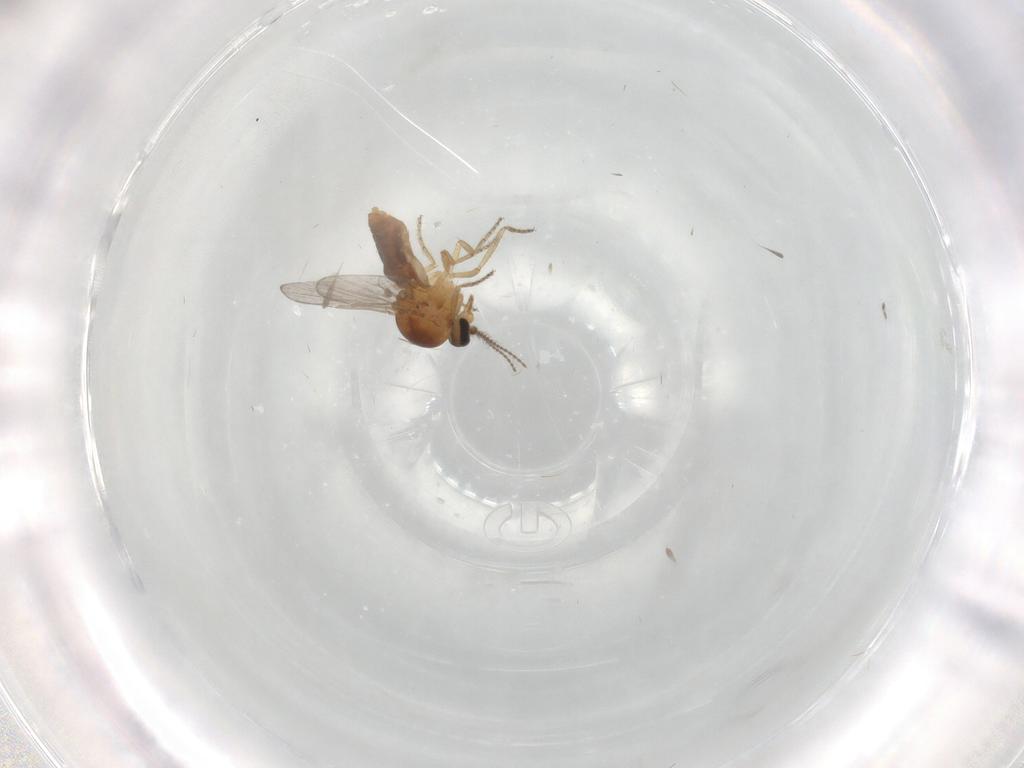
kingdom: Animalia
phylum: Arthropoda
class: Insecta
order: Diptera
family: Ceratopogonidae
